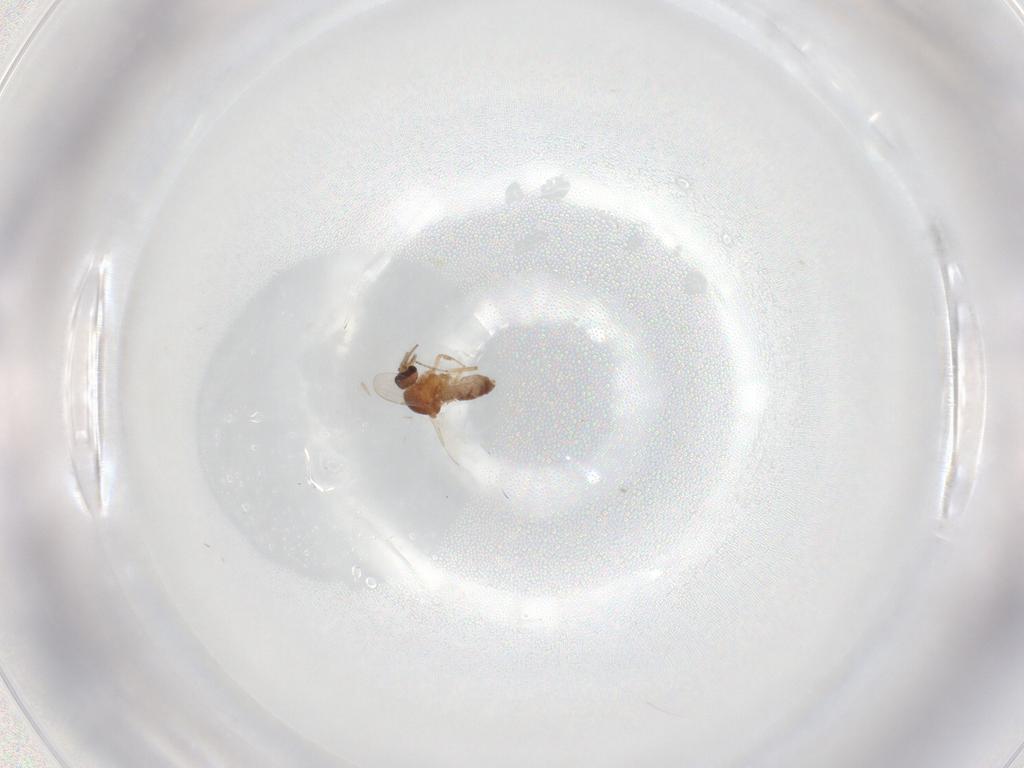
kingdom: Animalia
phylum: Arthropoda
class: Insecta
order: Diptera
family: Ceratopogonidae
